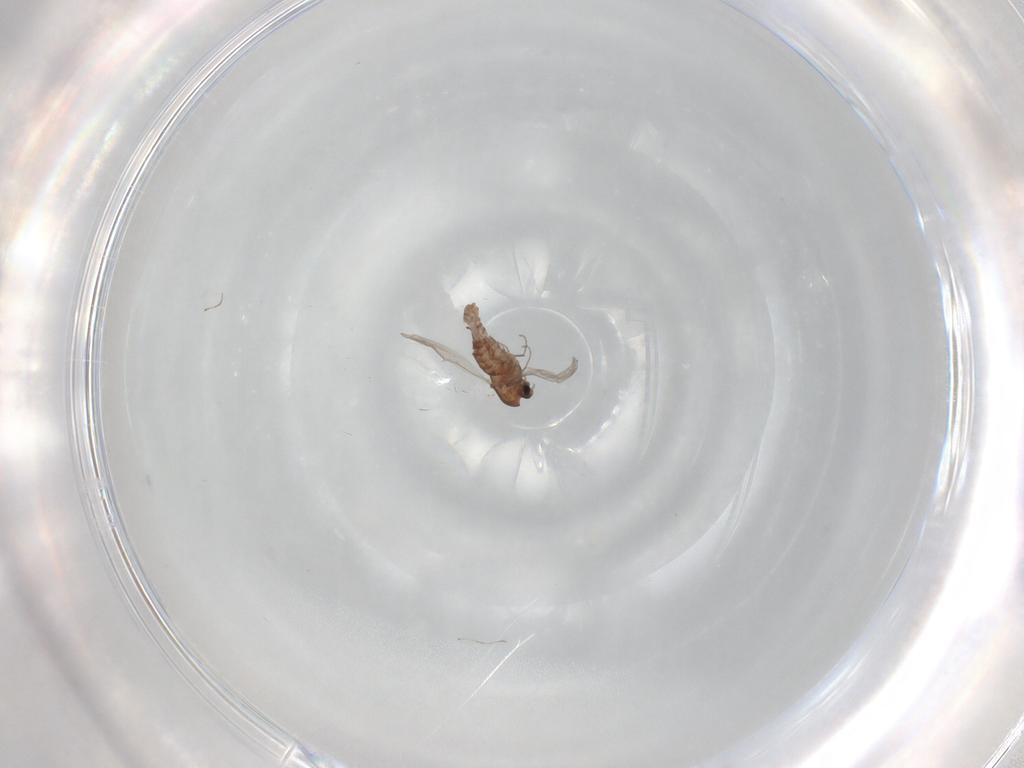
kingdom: Animalia
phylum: Arthropoda
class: Insecta
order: Diptera
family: Chironomidae
